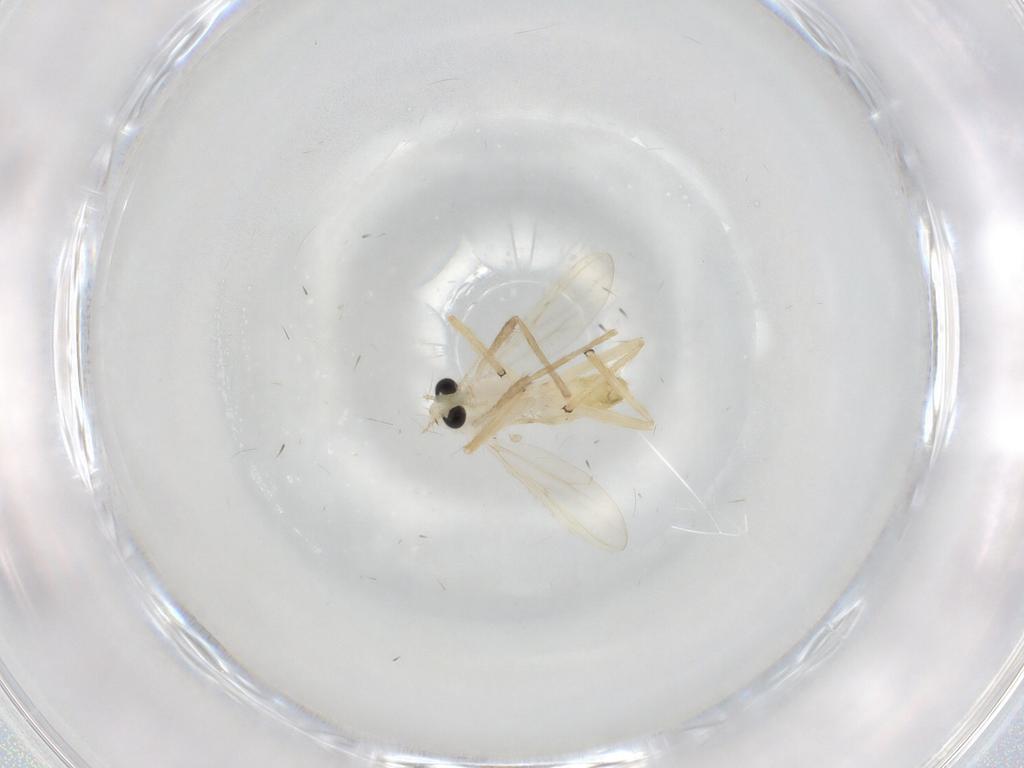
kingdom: Animalia
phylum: Arthropoda
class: Insecta
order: Diptera
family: Chironomidae
